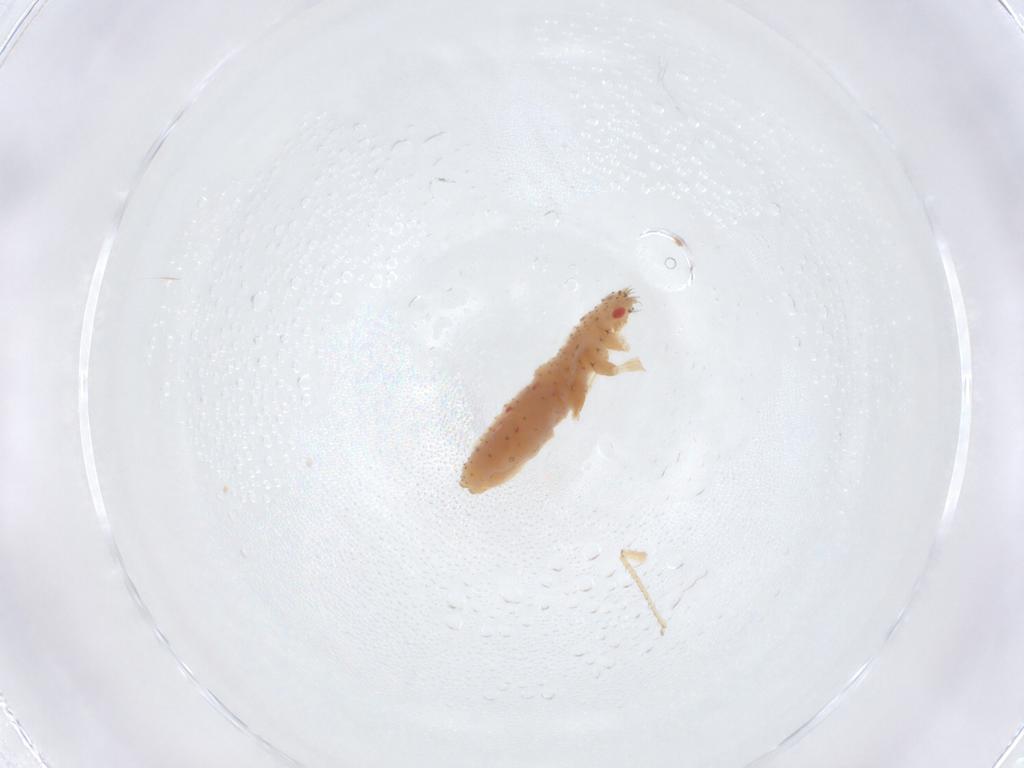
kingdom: Animalia
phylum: Arthropoda
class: Insecta
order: Hemiptera
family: Aphididae
